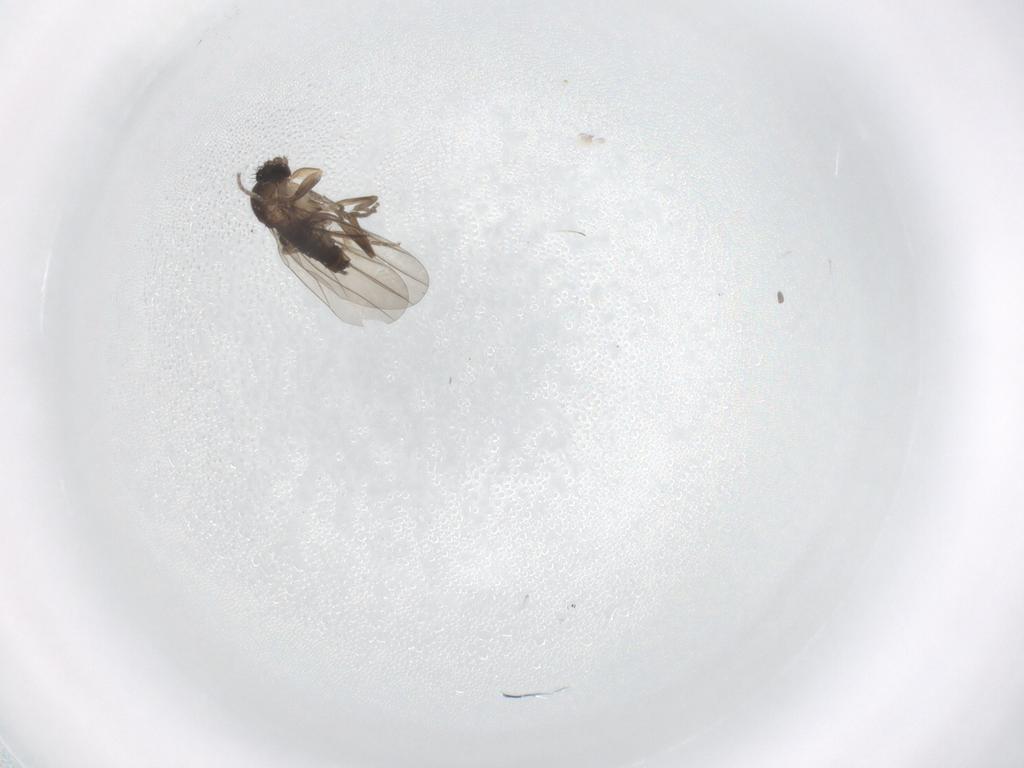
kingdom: Animalia
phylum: Arthropoda
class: Insecta
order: Diptera
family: Phoridae
